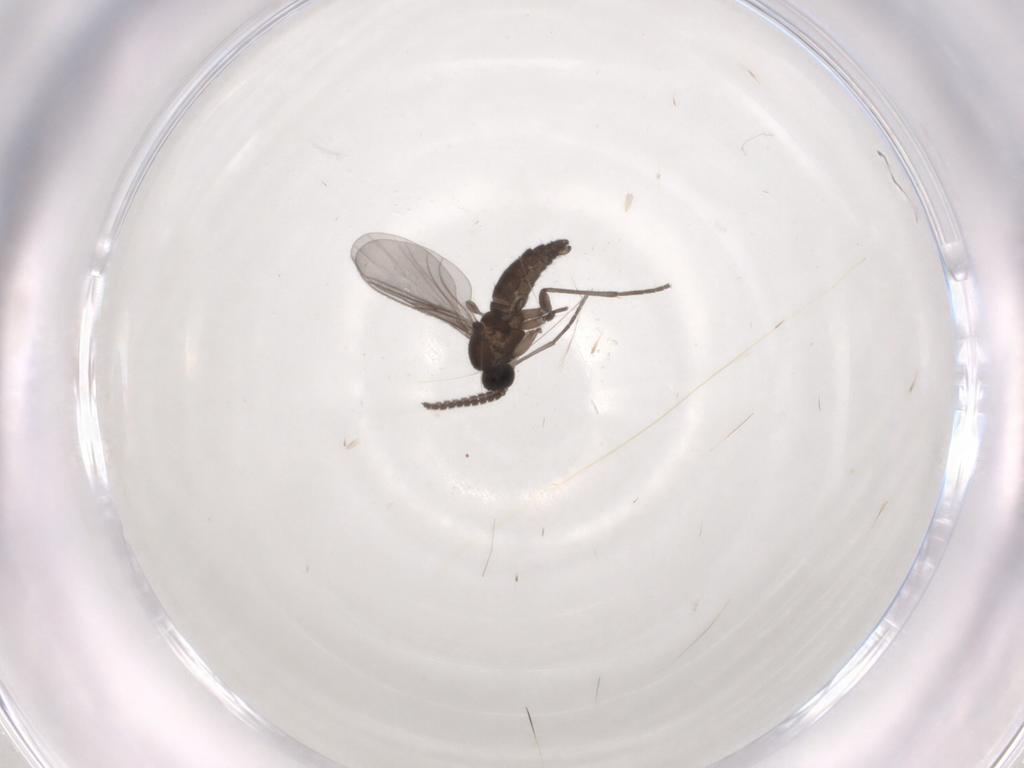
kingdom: Animalia
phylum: Arthropoda
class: Insecta
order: Diptera
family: Sciaridae
